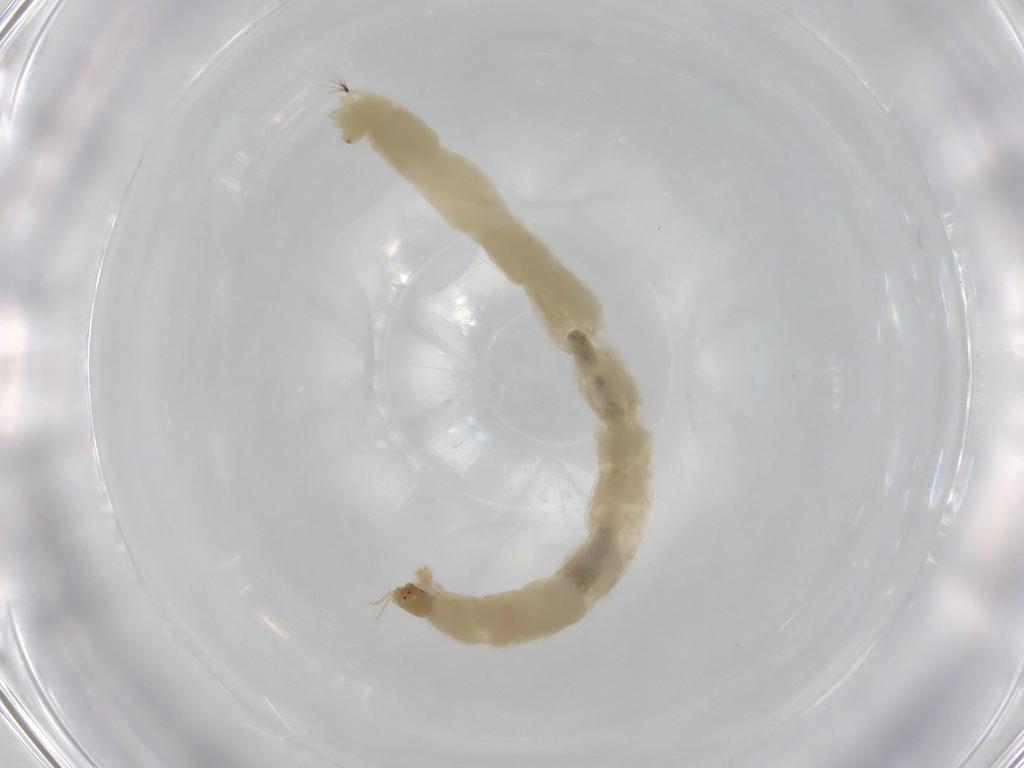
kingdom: Animalia
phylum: Arthropoda
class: Insecta
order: Diptera
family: Chironomidae
